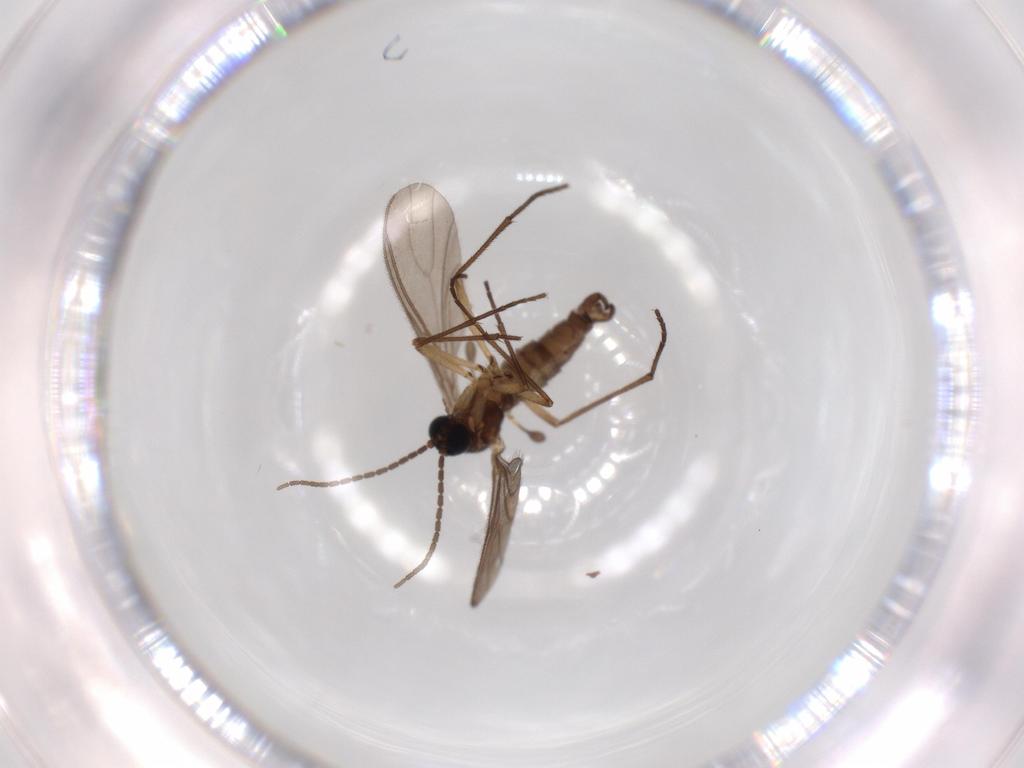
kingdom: Animalia
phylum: Arthropoda
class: Insecta
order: Diptera
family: Sciaridae
